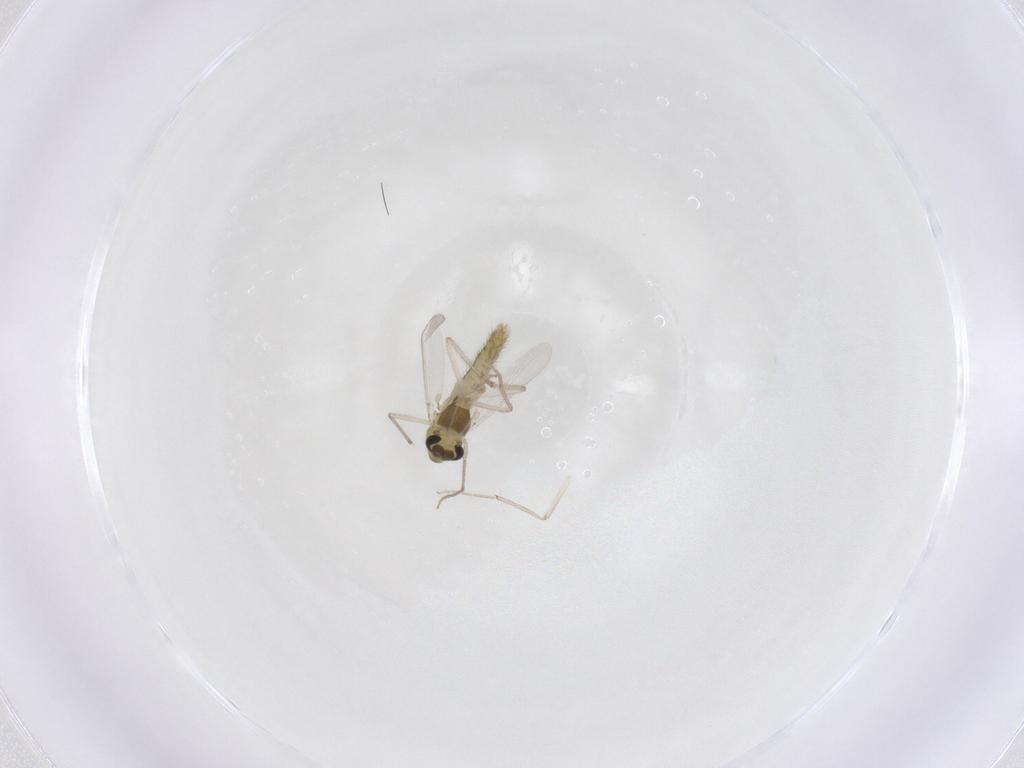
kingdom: Animalia
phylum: Arthropoda
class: Insecta
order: Diptera
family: Chironomidae
